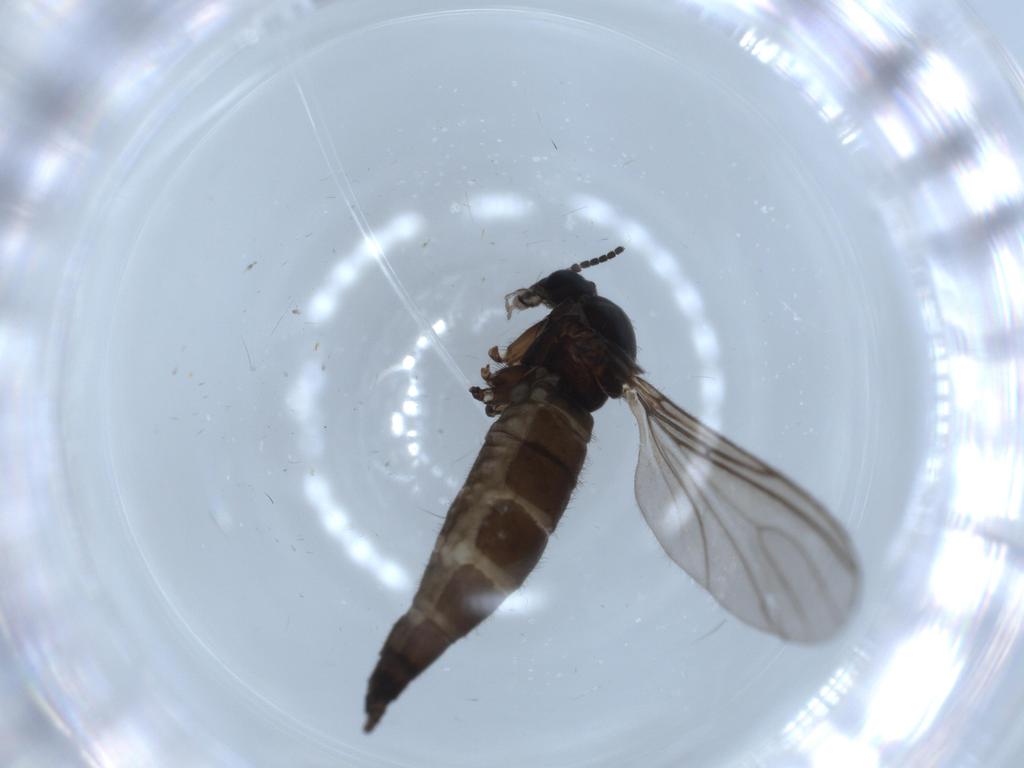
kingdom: Animalia
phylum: Arthropoda
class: Insecta
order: Diptera
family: Sciaridae
